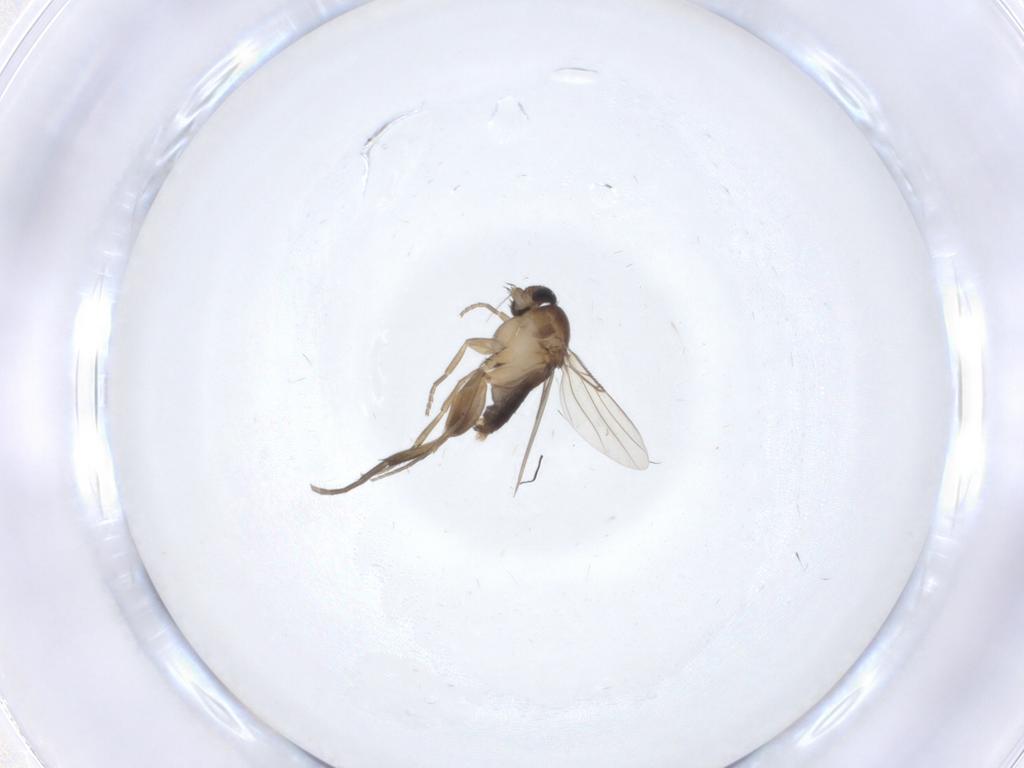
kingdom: Animalia
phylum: Arthropoda
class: Insecta
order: Diptera
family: Phoridae
